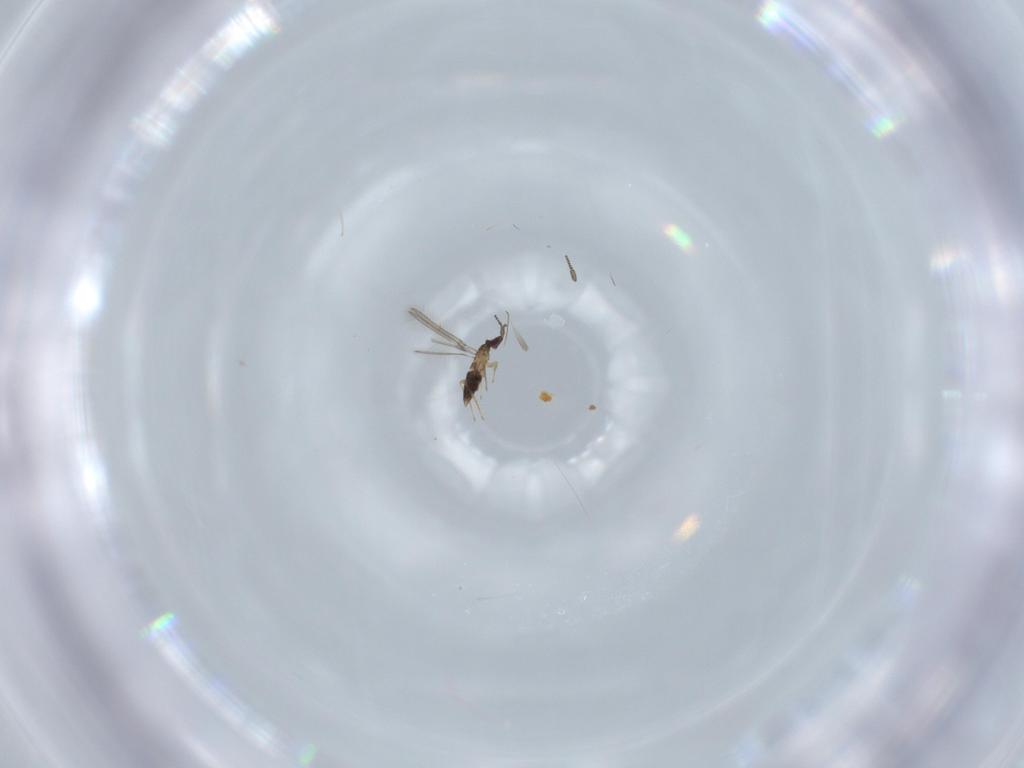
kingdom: Animalia
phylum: Arthropoda
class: Insecta
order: Hymenoptera
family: Mymaridae
